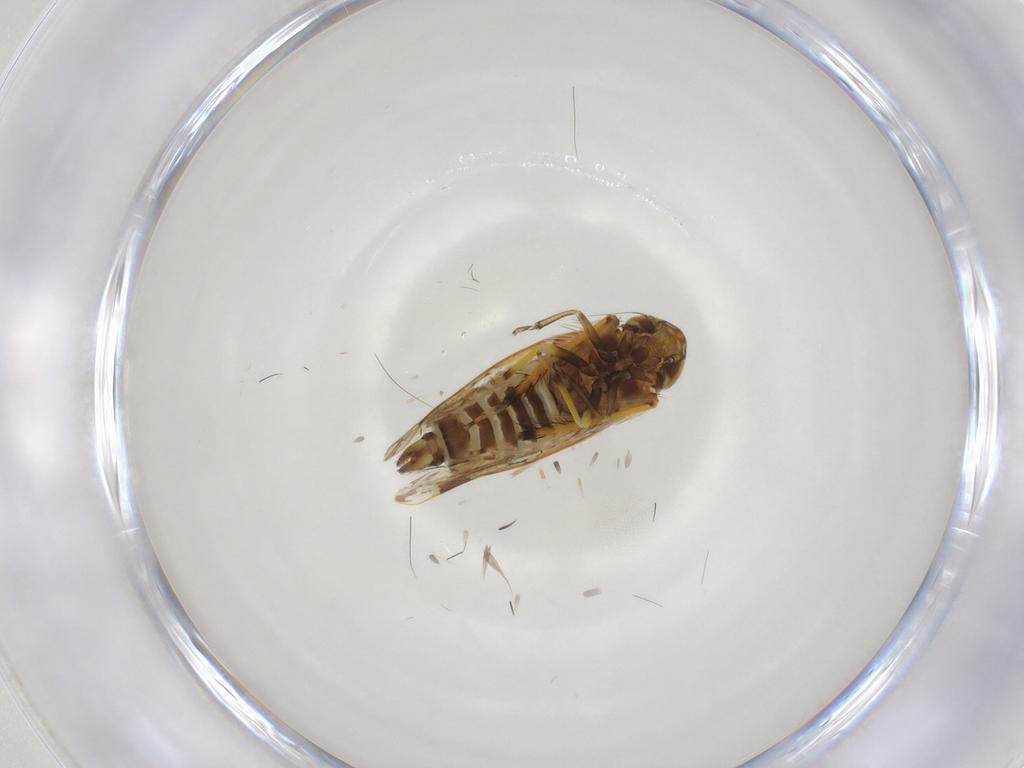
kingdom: Animalia
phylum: Arthropoda
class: Insecta
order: Hemiptera
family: Cicadellidae
